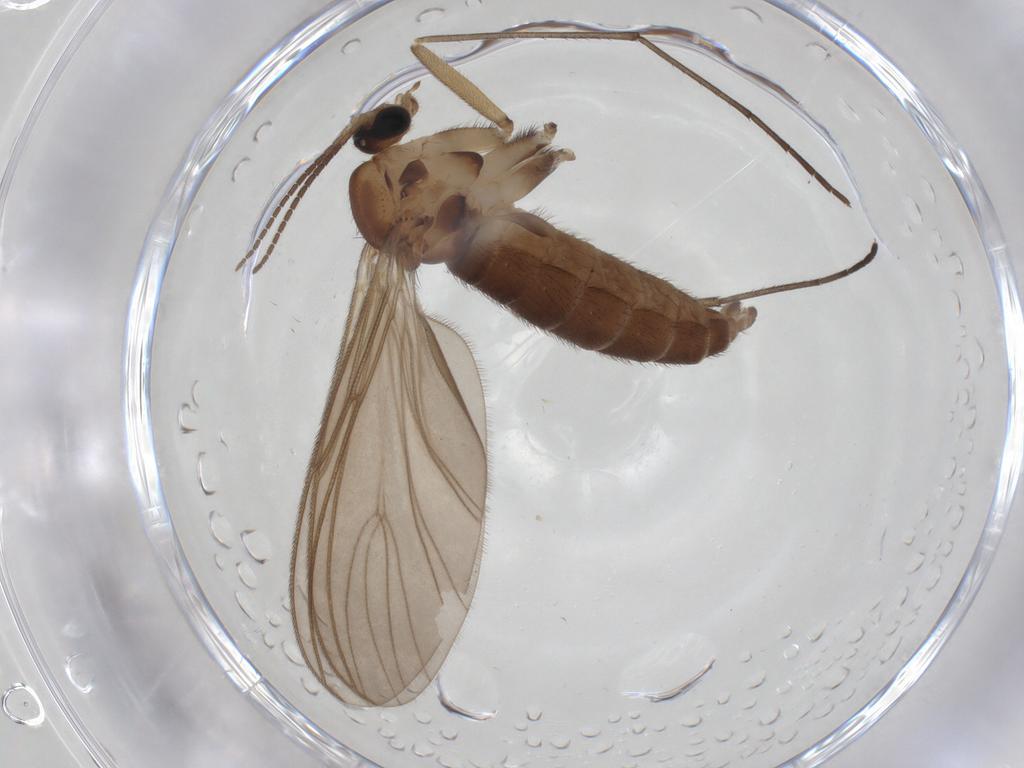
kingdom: Animalia
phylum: Arthropoda
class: Insecta
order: Diptera
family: Sciaridae
